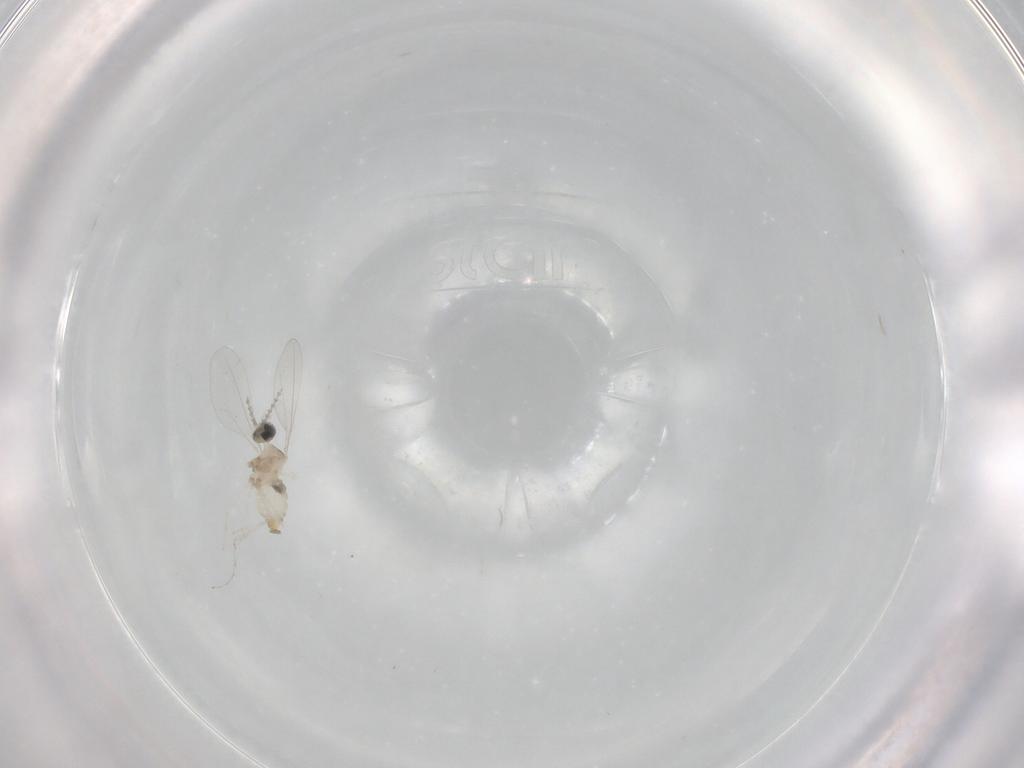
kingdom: Animalia
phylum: Arthropoda
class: Insecta
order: Diptera
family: Cecidomyiidae
